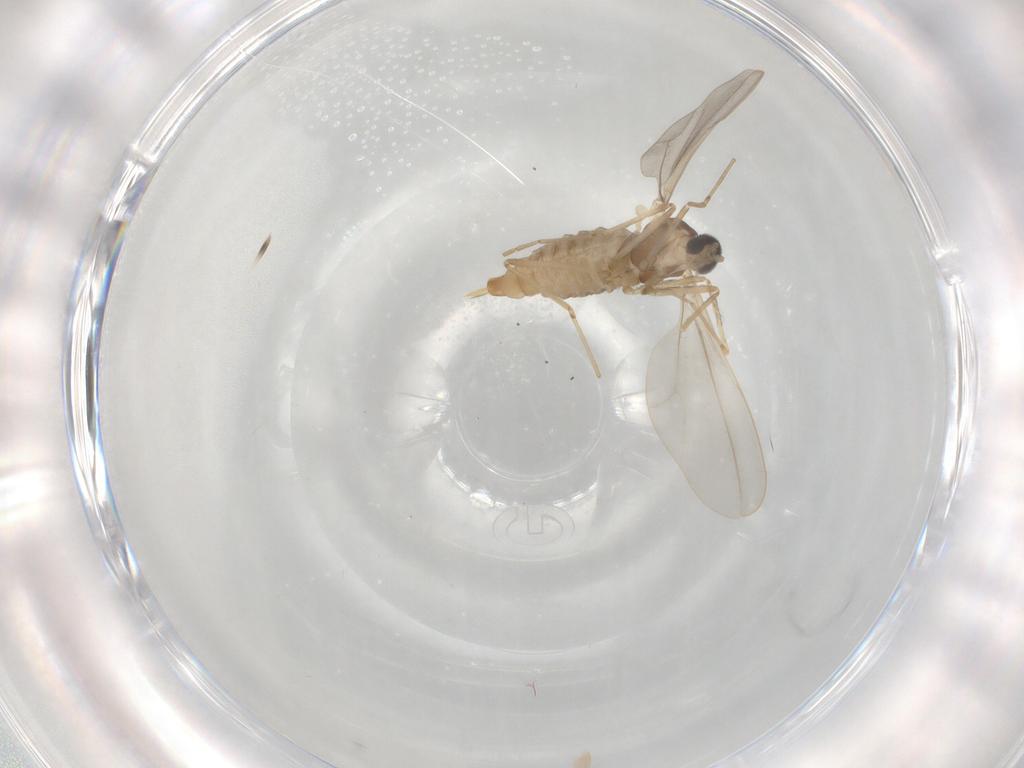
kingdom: Animalia
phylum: Arthropoda
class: Insecta
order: Diptera
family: Cecidomyiidae
